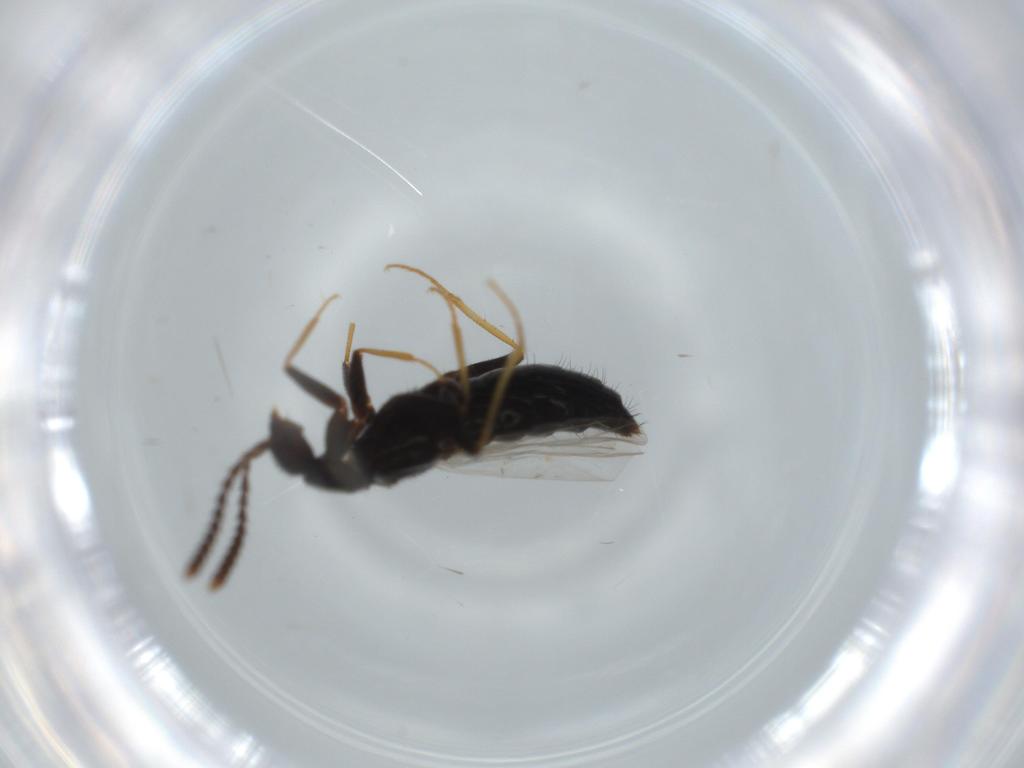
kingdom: Animalia
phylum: Arthropoda
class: Insecta
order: Coleoptera
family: Staphylinidae
